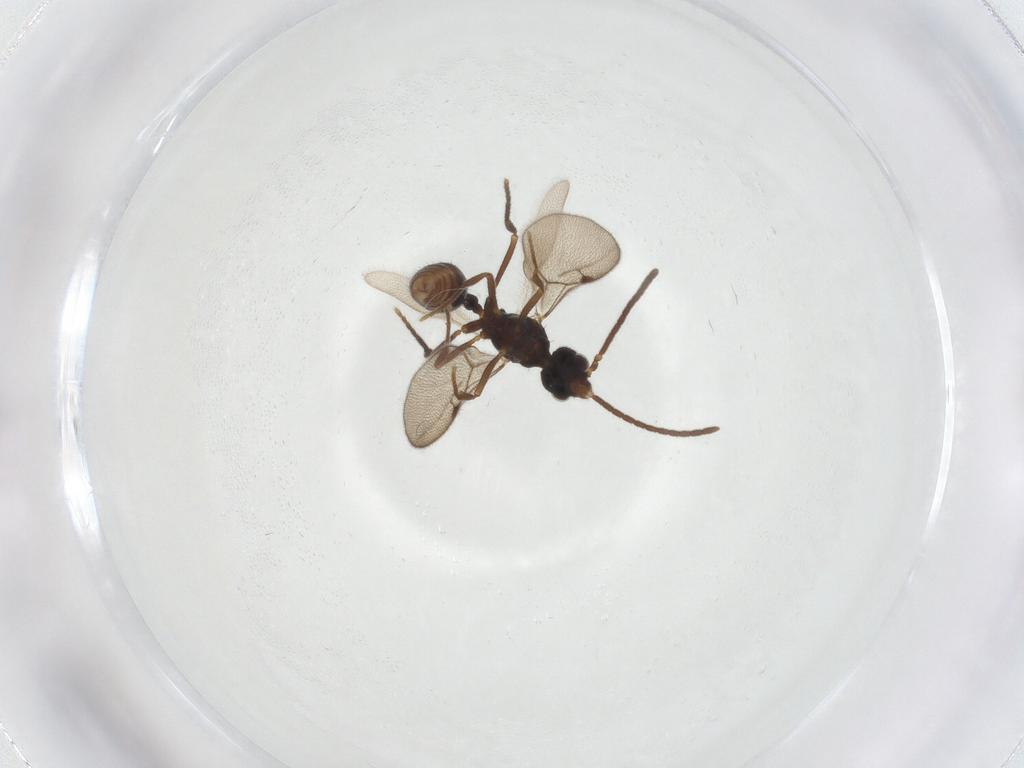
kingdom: Animalia
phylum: Arthropoda
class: Insecta
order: Hymenoptera
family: Formicidae
